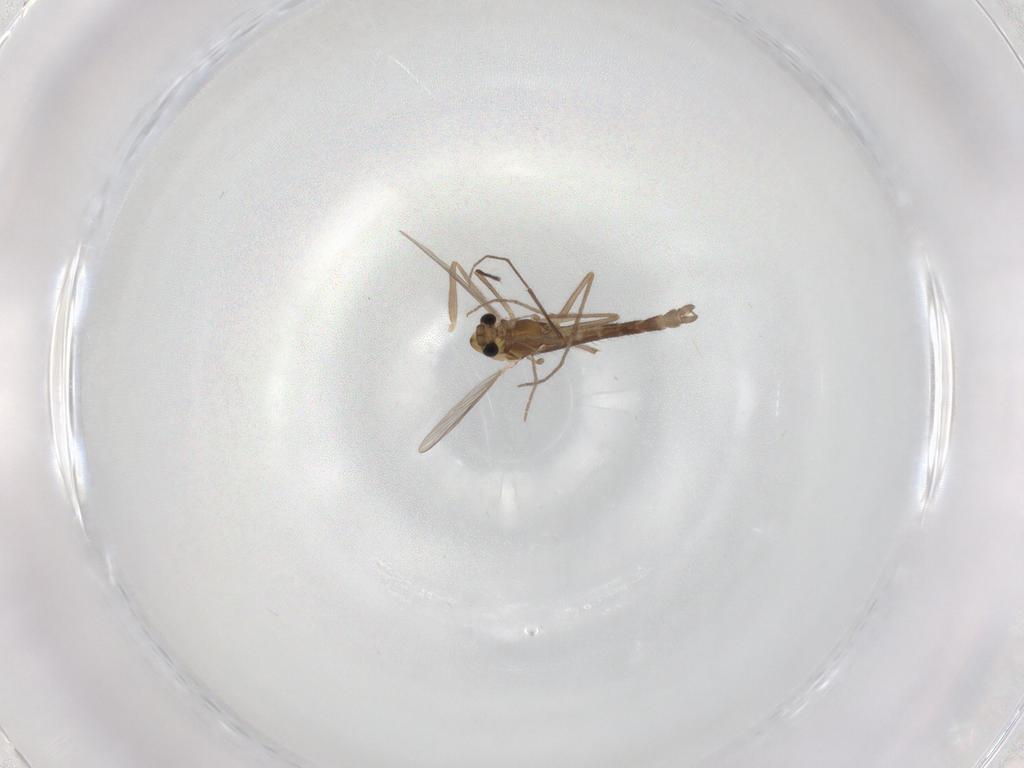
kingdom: Animalia
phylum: Arthropoda
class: Insecta
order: Diptera
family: Chironomidae
